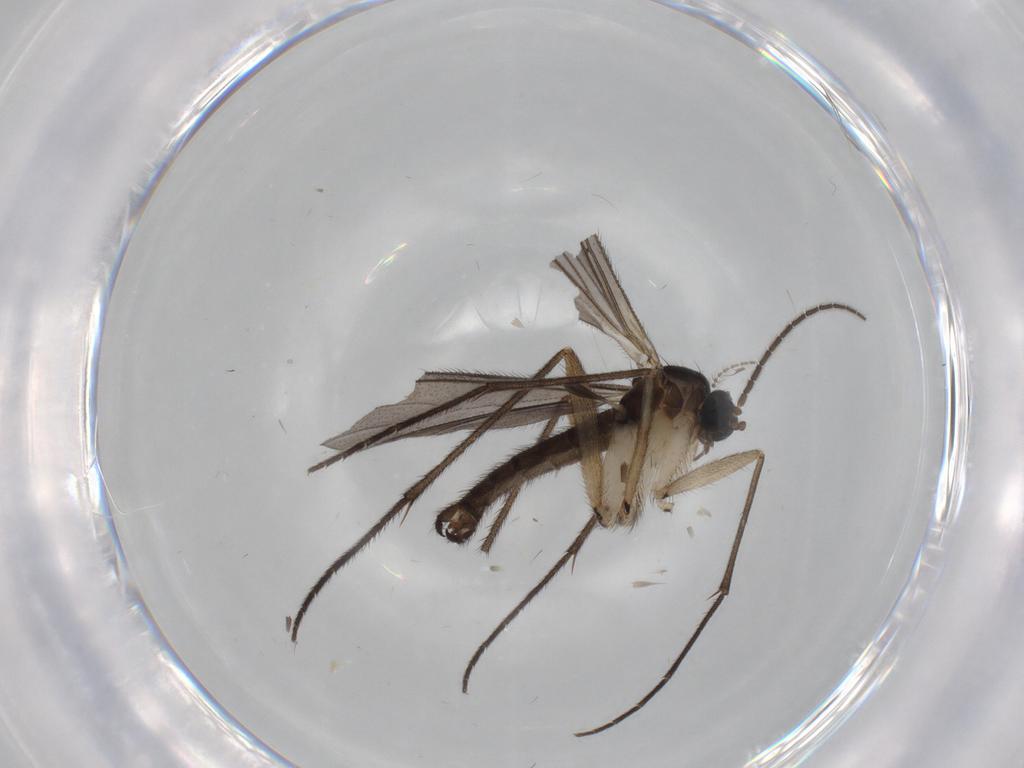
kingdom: Animalia
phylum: Arthropoda
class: Insecta
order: Diptera
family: Sciaridae
